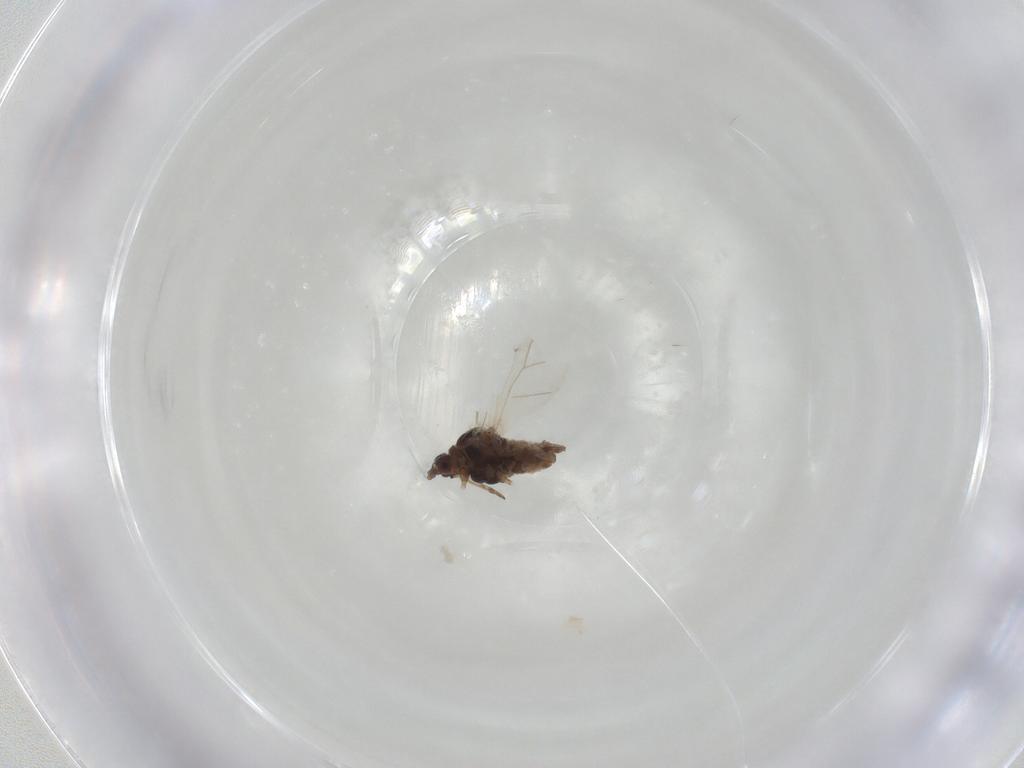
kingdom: Animalia
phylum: Arthropoda
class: Insecta
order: Hemiptera
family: Aphididae
